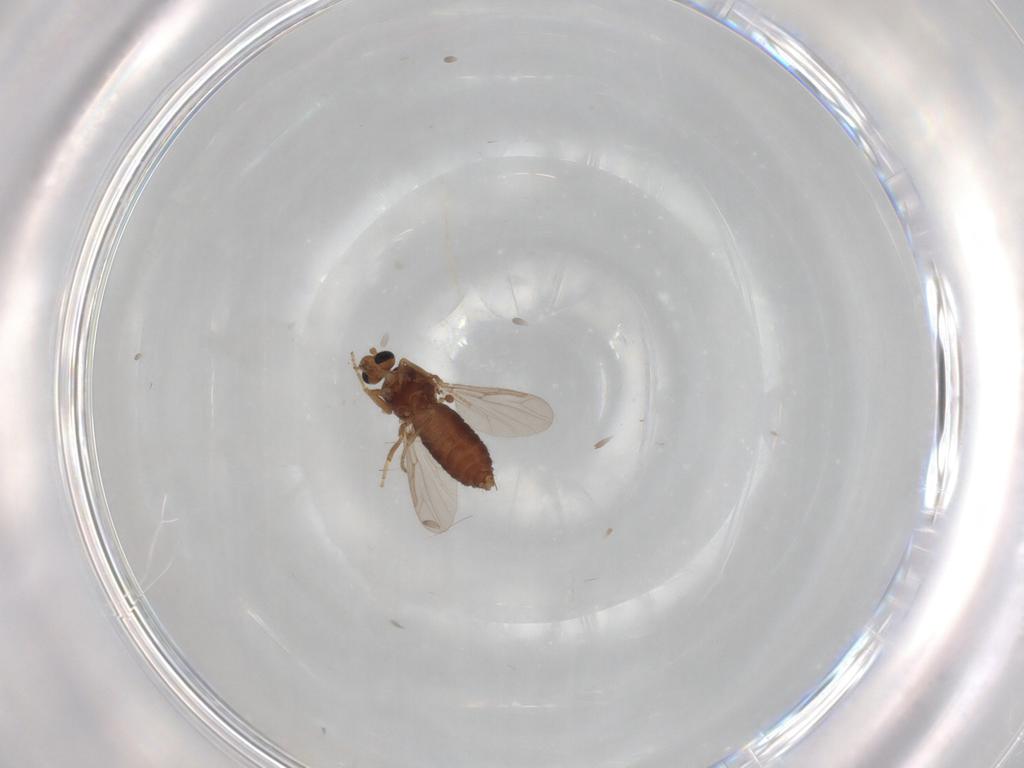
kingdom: Animalia
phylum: Arthropoda
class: Insecta
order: Diptera
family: Ceratopogonidae
